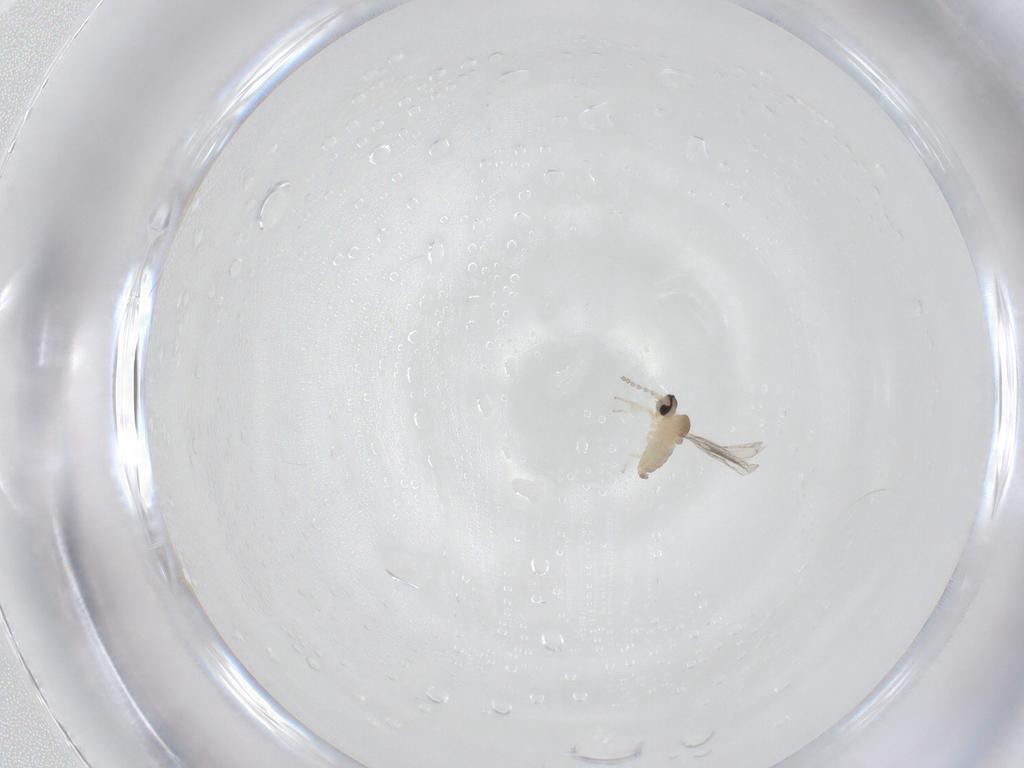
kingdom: Animalia
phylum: Arthropoda
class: Insecta
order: Diptera
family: Cecidomyiidae
